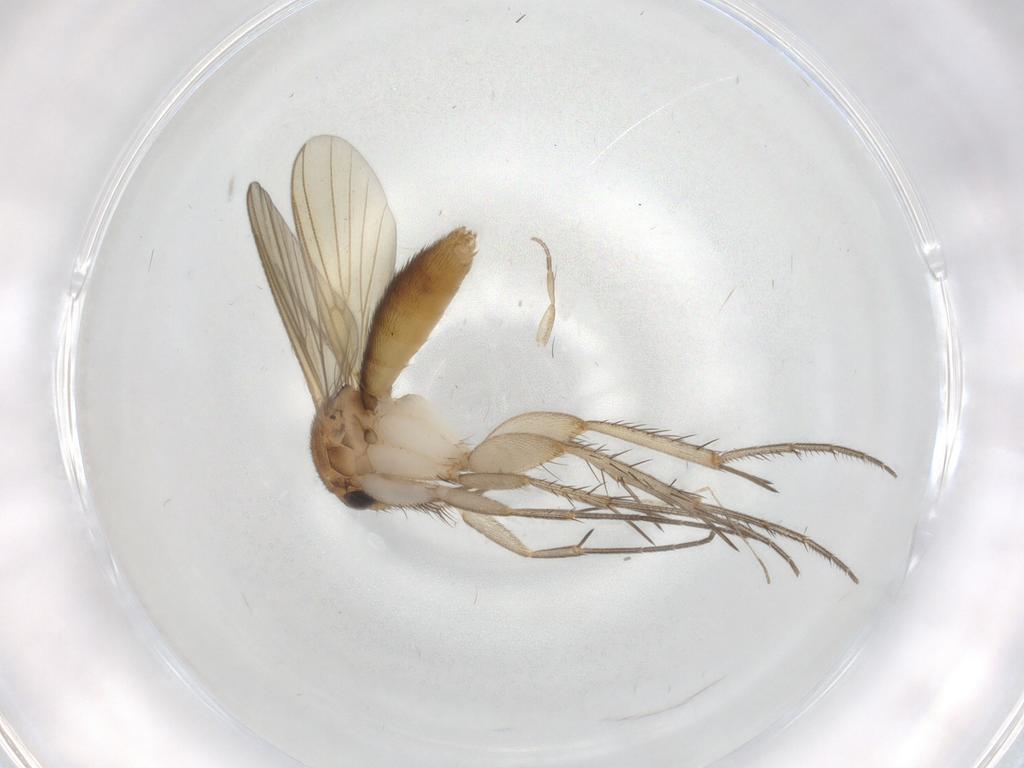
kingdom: Animalia
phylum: Arthropoda
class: Insecta
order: Diptera
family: Mycetophilidae
